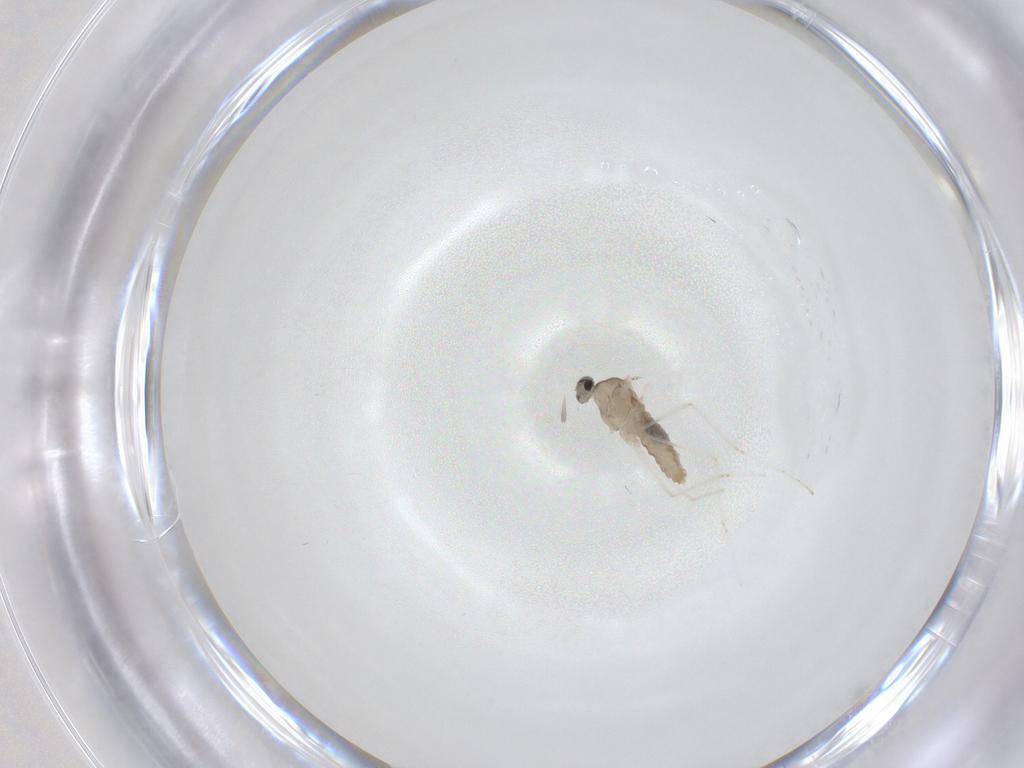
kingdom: Animalia
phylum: Arthropoda
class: Insecta
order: Diptera
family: Cecidomyiidae
